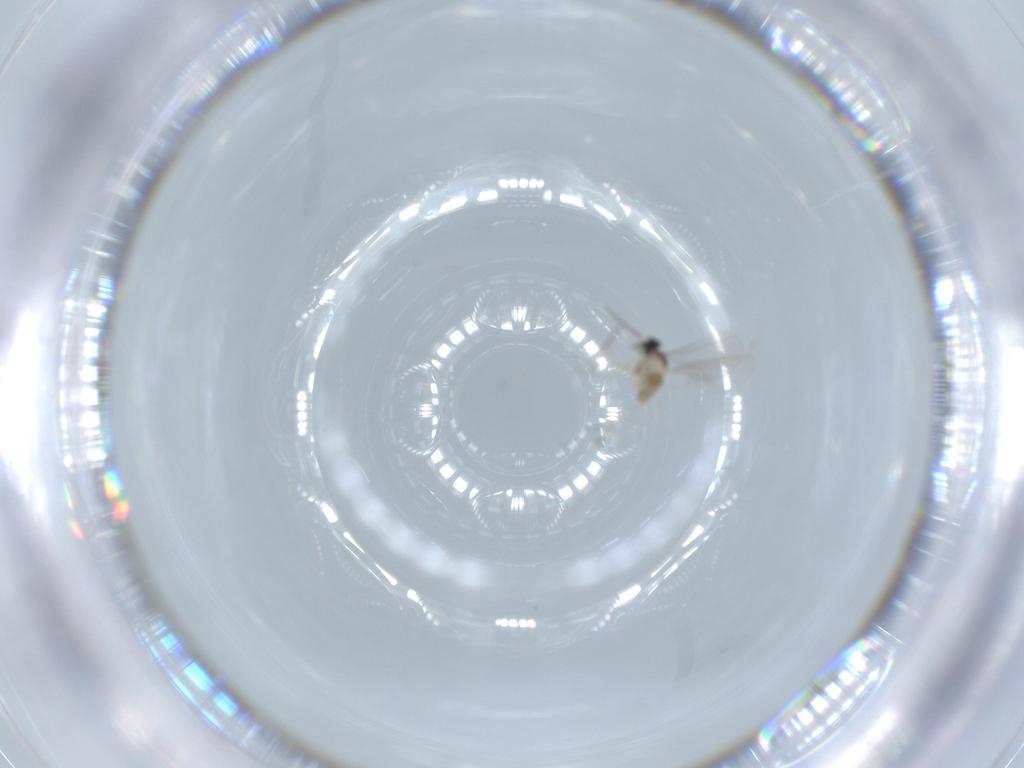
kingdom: Animalia
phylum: Arthropoda
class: Insecta
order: Diptera
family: Cecidomyiidae
